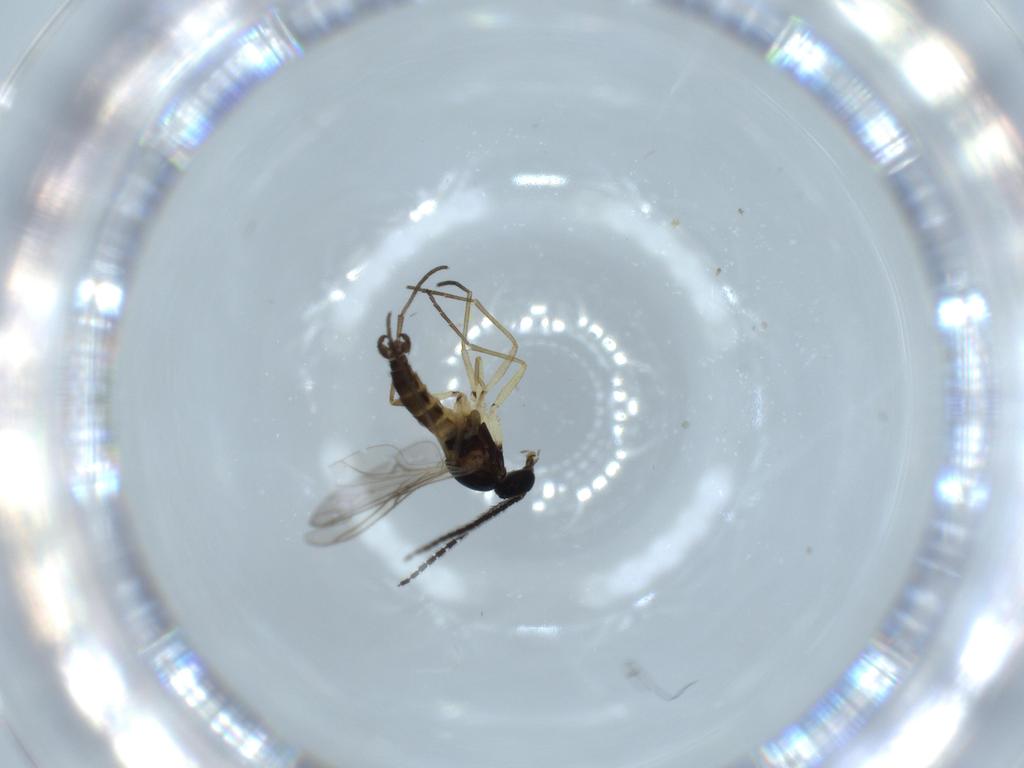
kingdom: Animalia
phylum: Arthropoda
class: Insecta
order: Diptera
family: Sciaridae
